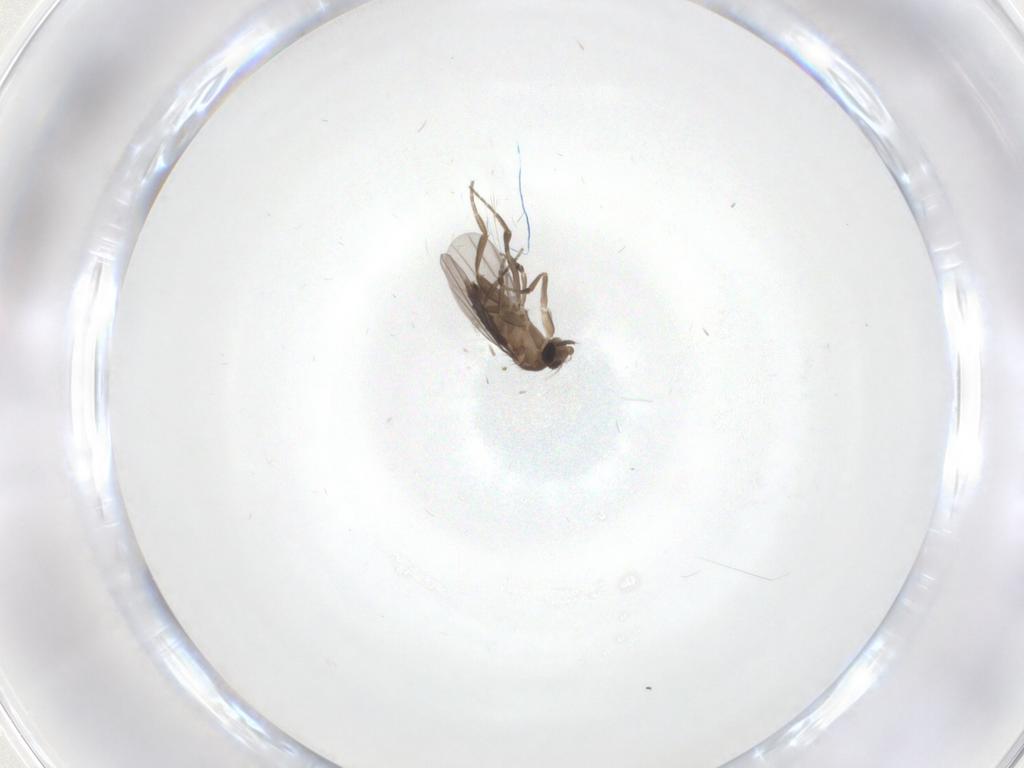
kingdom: Animalia
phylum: Arthropoda
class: Insecta
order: Diptera
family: Phoridae
